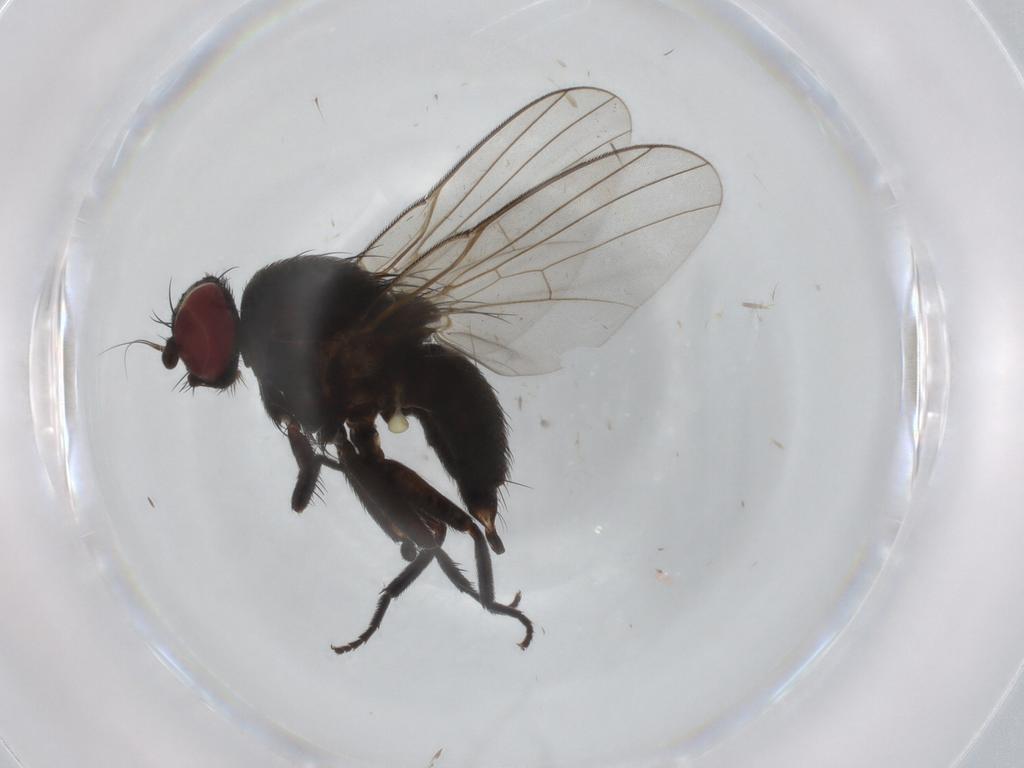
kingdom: Animalia
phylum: Arthropoda
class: Insecta
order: Diptera
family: Agromyzidae
